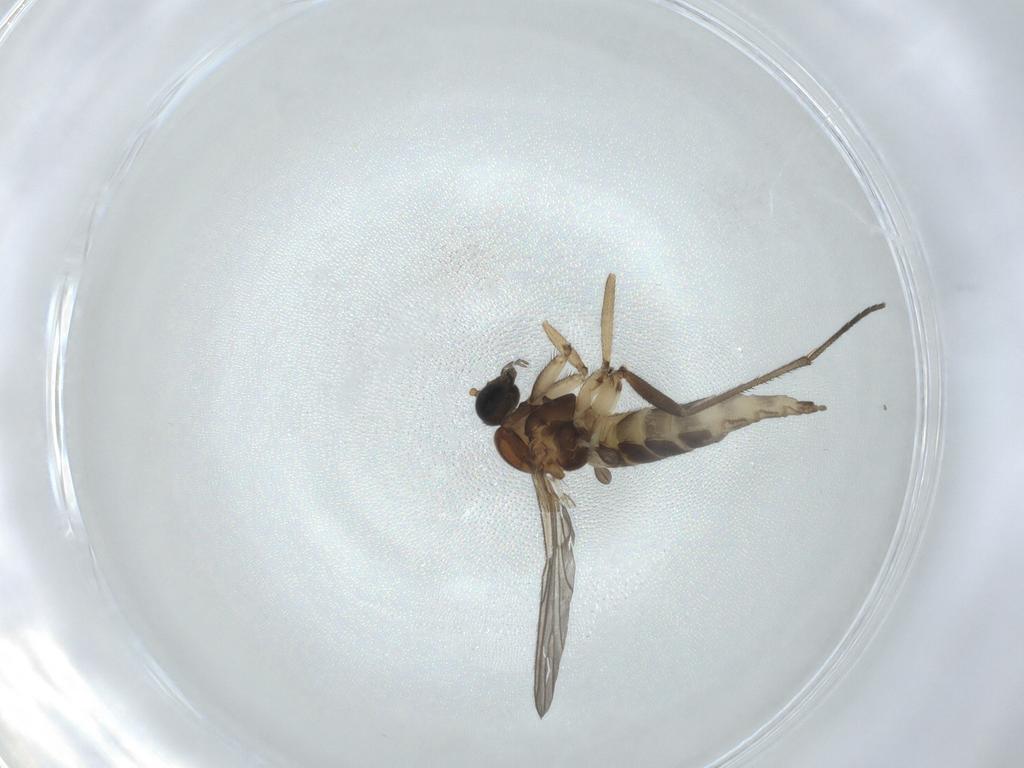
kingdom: Animalia
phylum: Arthropoda
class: Insecta
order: Diptera
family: Sciaridae
